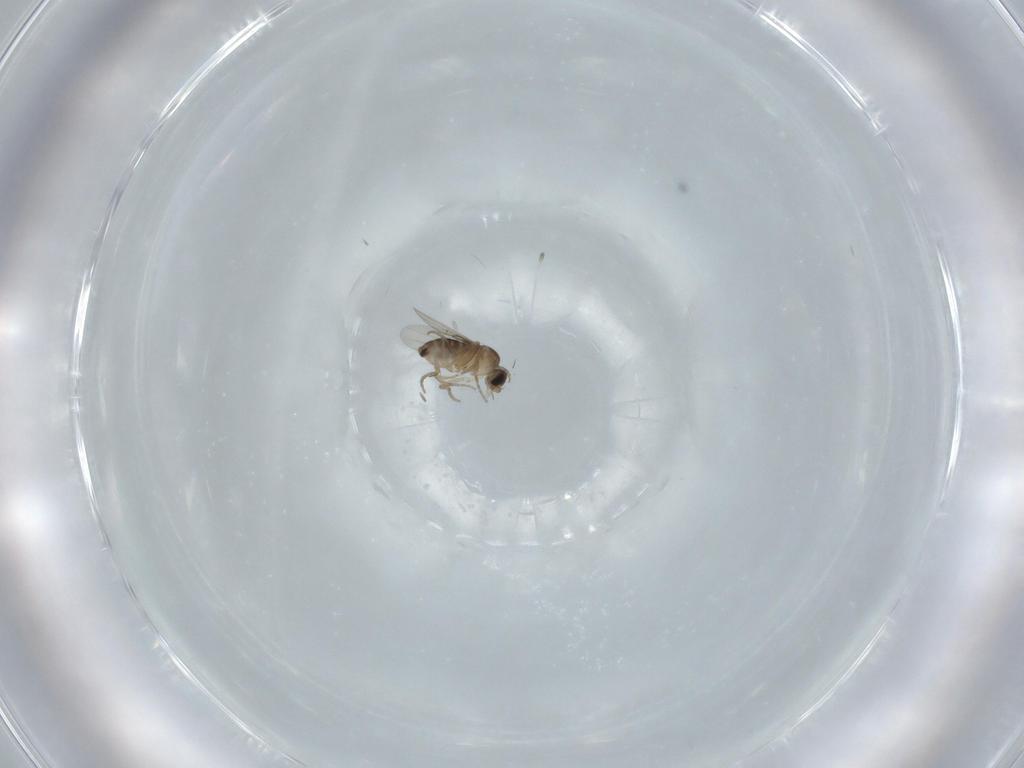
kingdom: Animalia
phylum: Arthropoda
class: Insecta
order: Diptera
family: Phoridae
